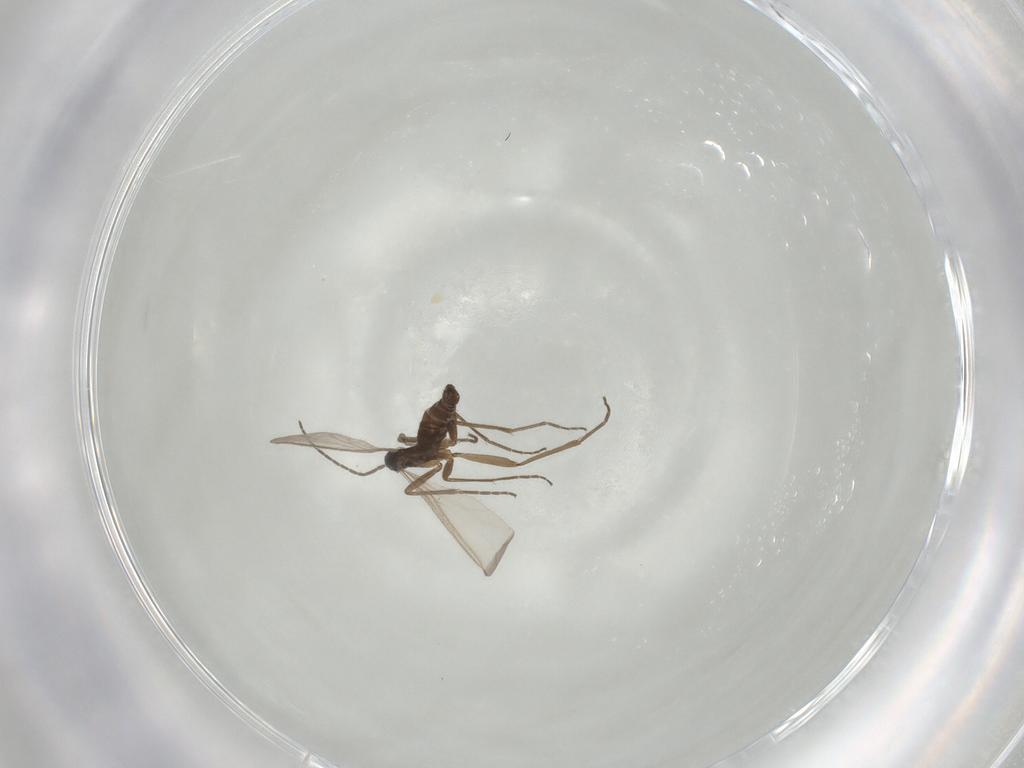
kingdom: Animalia
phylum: Arthropoda
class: Insecta
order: Diptera
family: Sciaridae
